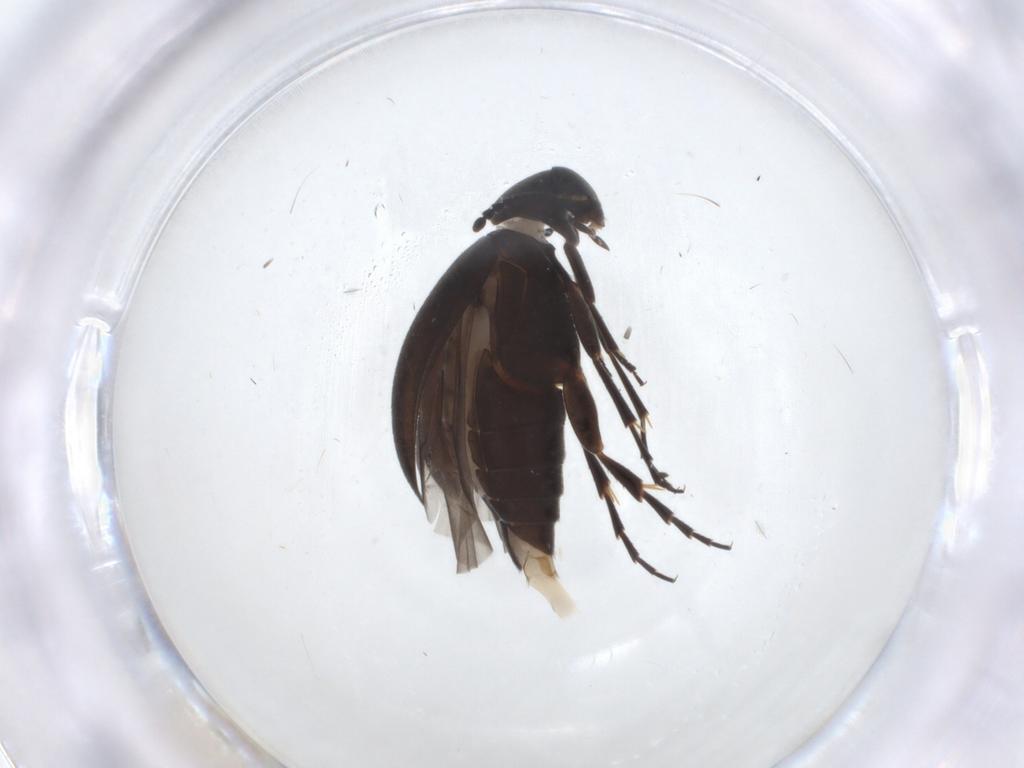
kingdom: Animalia
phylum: Arthropoda
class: Insecta
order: Coleoptera
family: Scraptiidae
